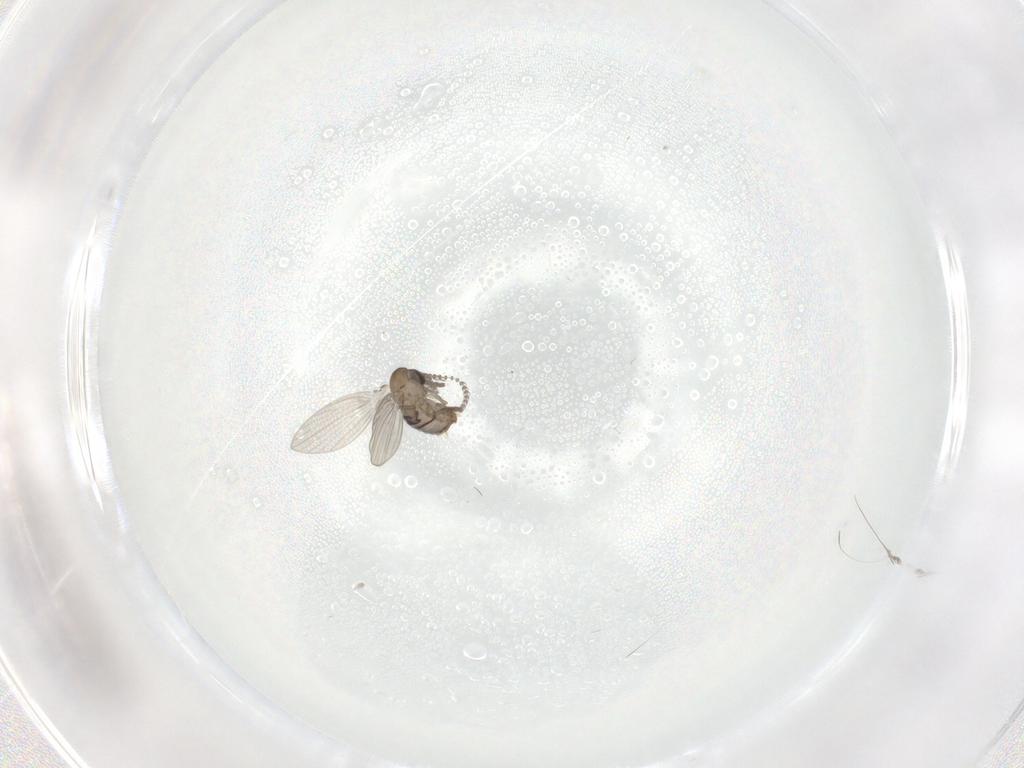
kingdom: Animalia
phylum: Arthropoda
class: Insecta
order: Diptera
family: Psychodidae
